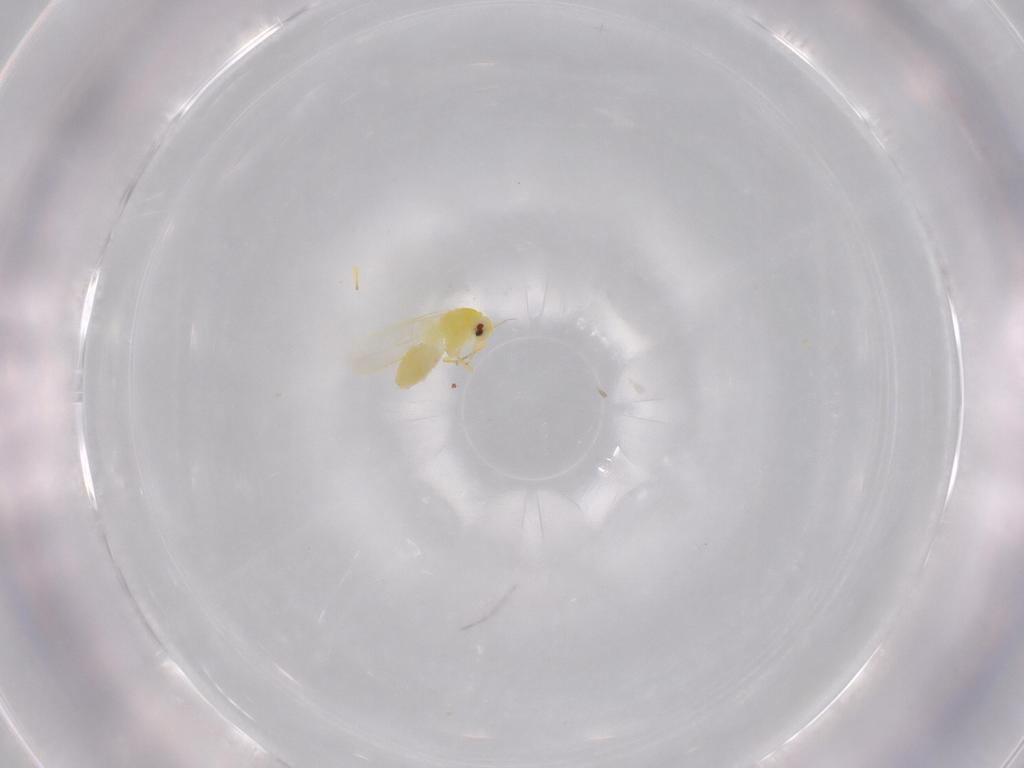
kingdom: Animalia
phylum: Arthropoda
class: Insecta
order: Hemiptera
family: Aleyrodidae
